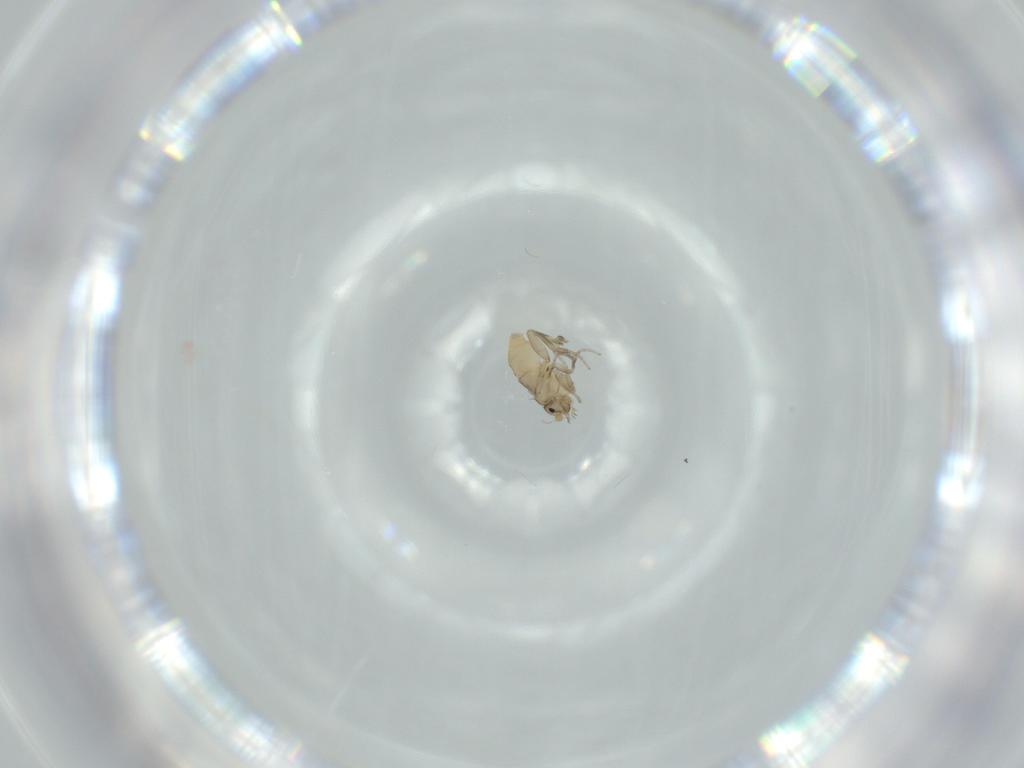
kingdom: Animalia
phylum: Arthropoda
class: Insecta
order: Diptera
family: Phoridae
